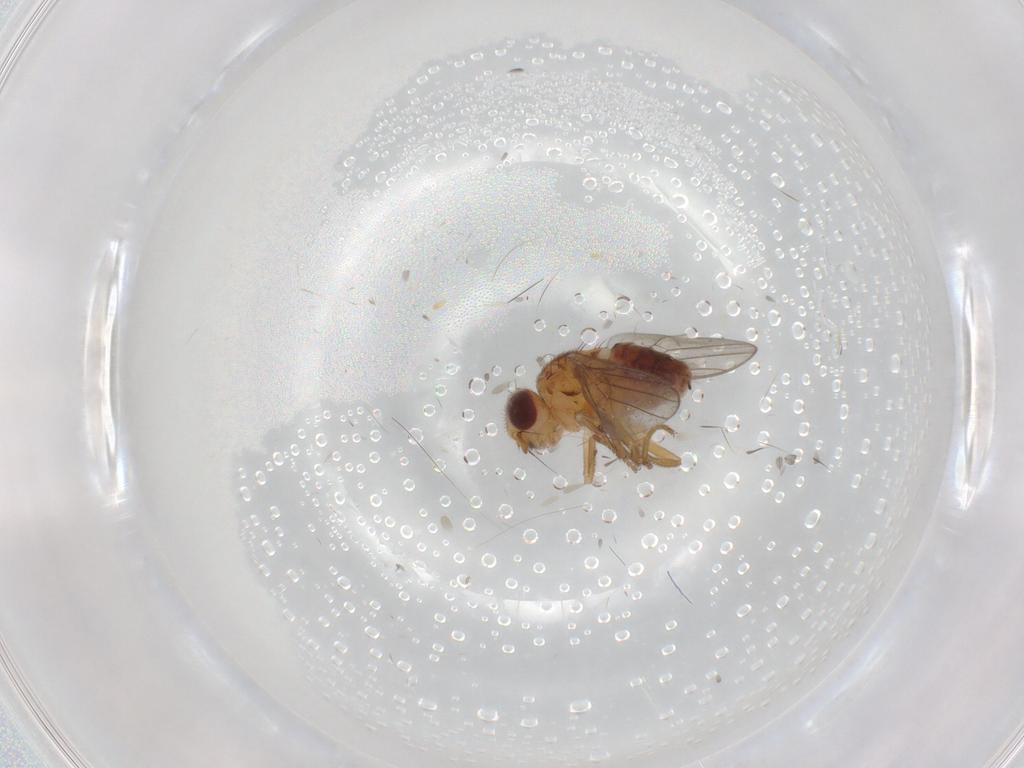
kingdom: Animalia
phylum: Arthropoda
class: Insecta
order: Diptera
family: Chloropidae
